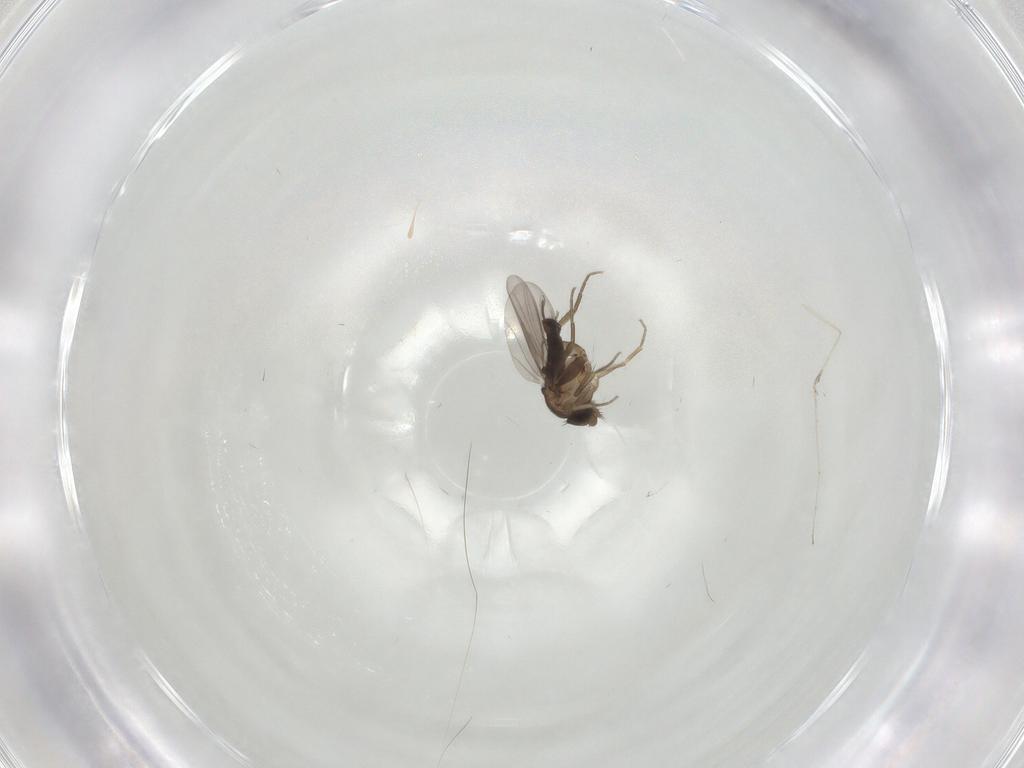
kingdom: Animalia
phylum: Arthropoda
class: Insecta
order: Diptera
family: Phoridae
